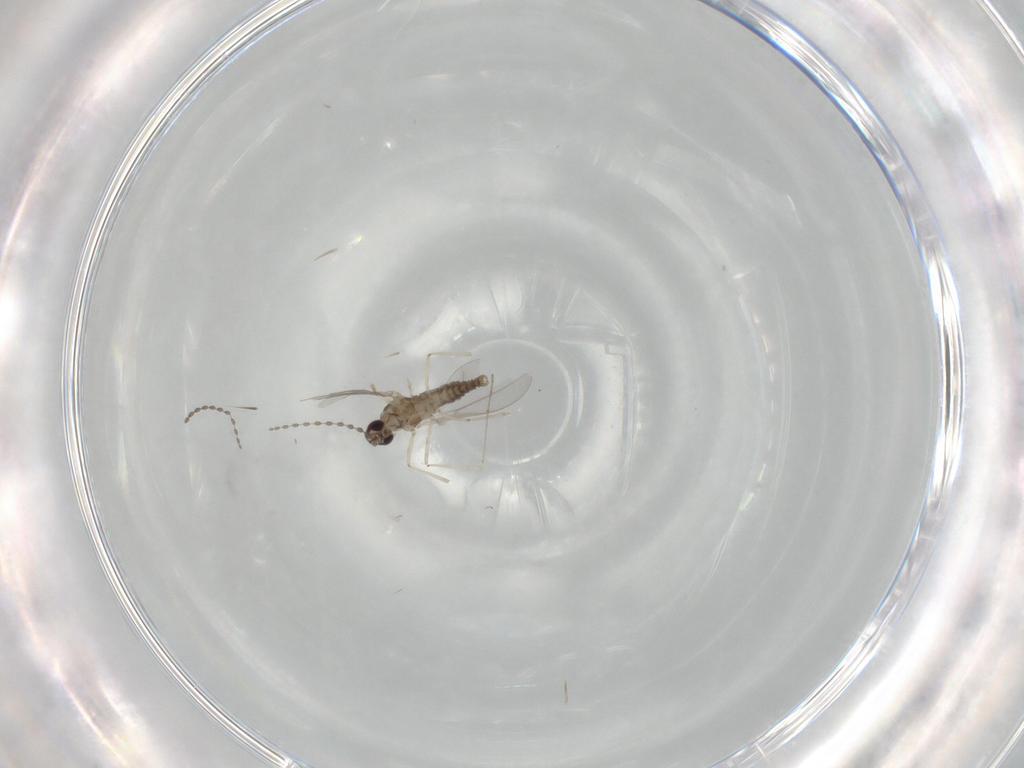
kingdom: Animalia
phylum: Arthropoda
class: Insecta
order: Diptera
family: Cecidomyiidae
